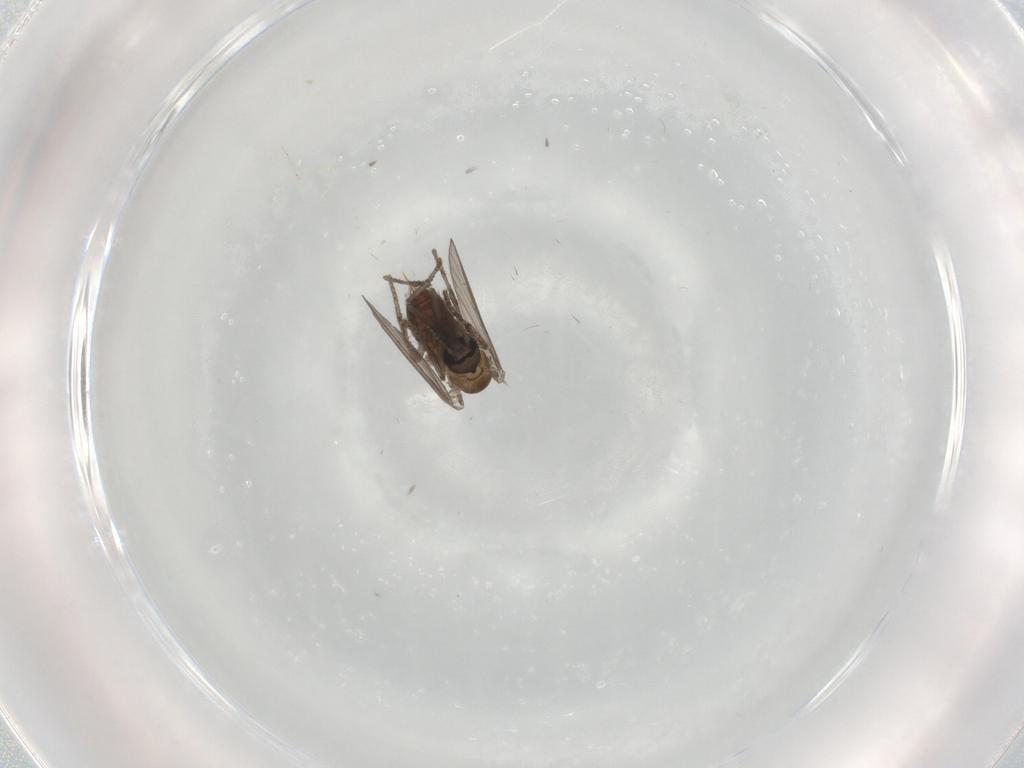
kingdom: Animalia
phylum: Arthropoda
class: Insecta
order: Diptera
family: Psychodidae
